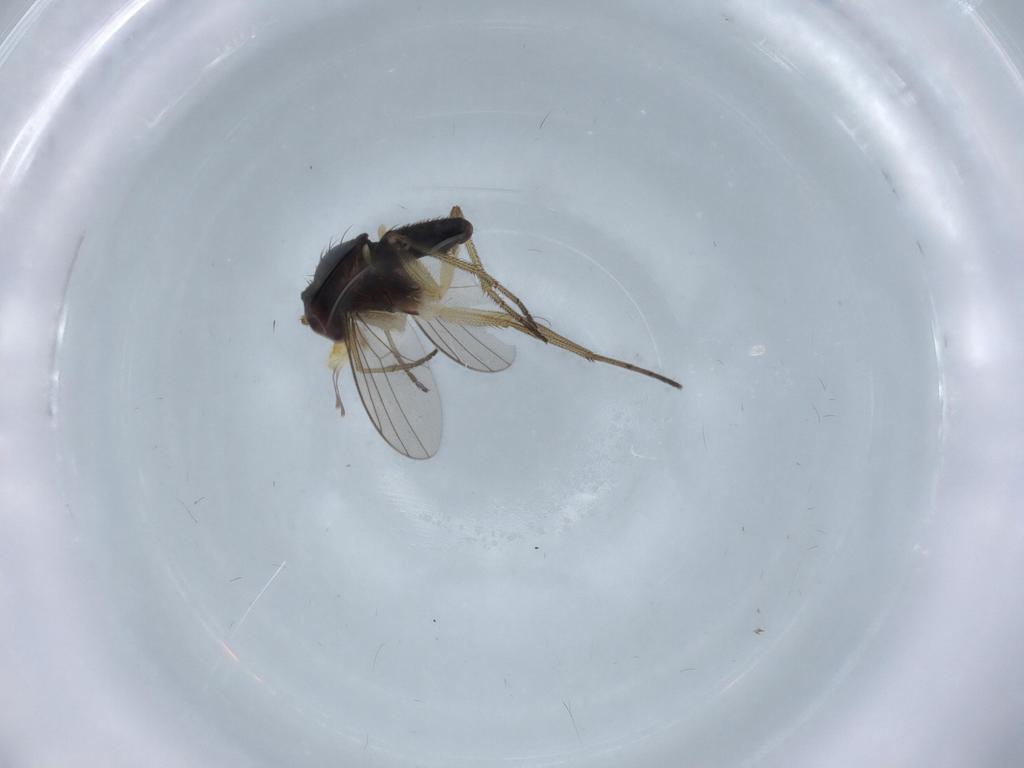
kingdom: Animalia
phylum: Arthropoda
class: Insecta
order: Diptera
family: Dolichopodidae
